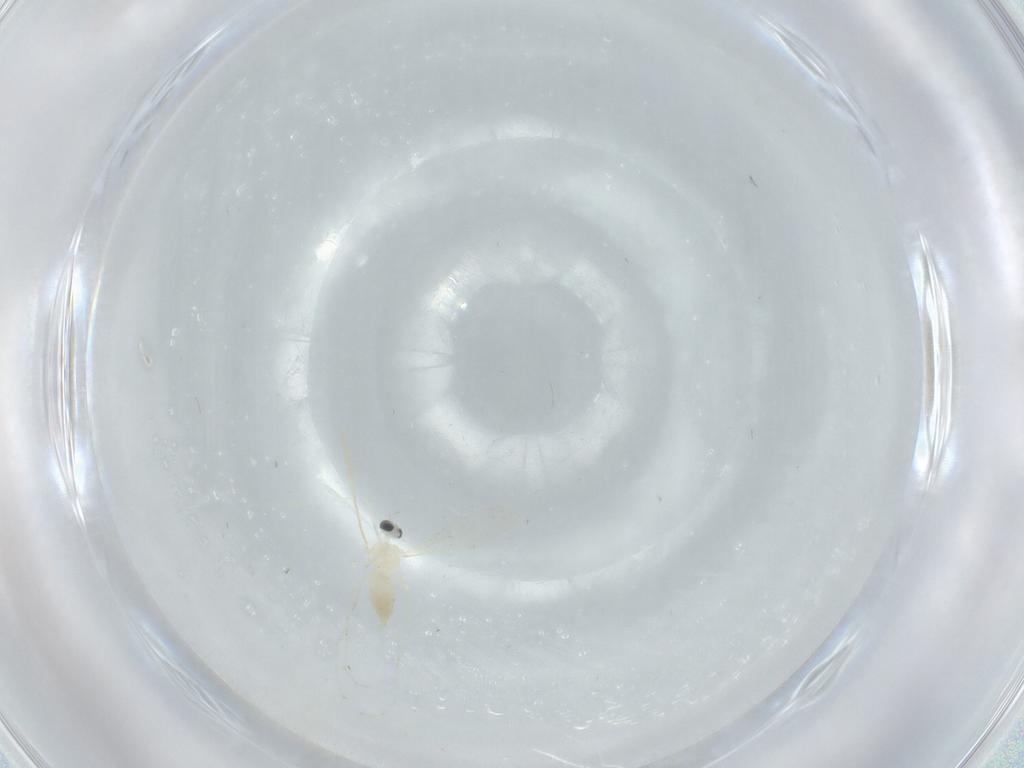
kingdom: Animalia
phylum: Arthropoda
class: Insecta
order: Diptera
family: Cecidomyiidae
